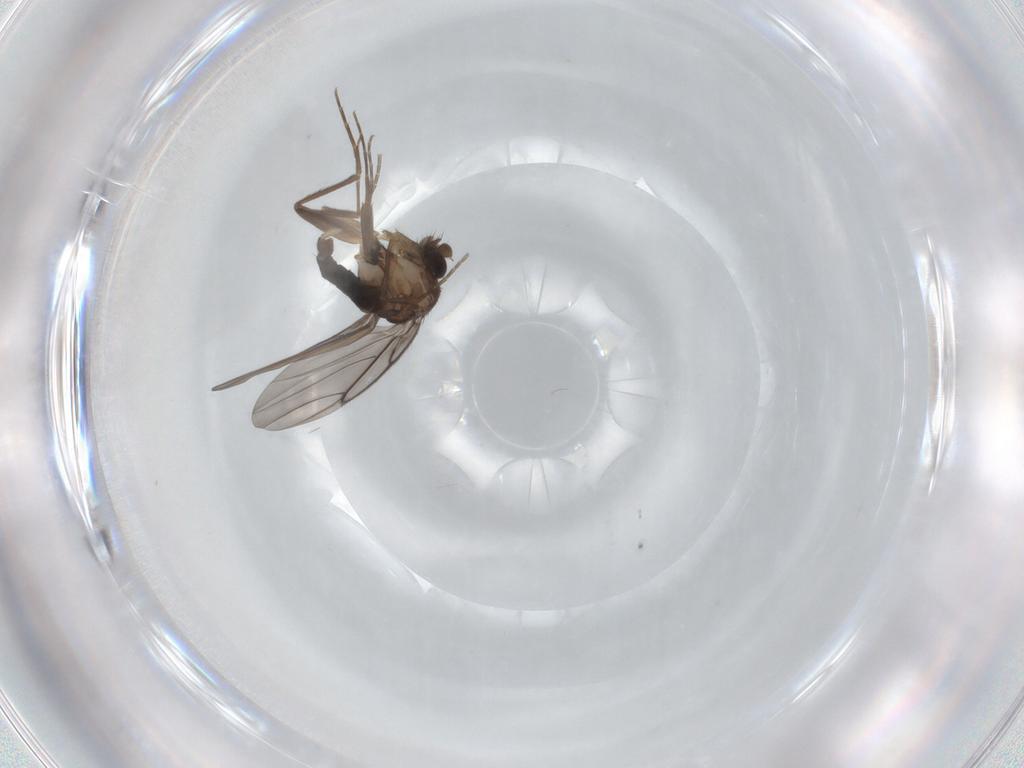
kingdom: Animalia
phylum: Arthropoda
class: Insecta
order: Diptera
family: Phoridae
